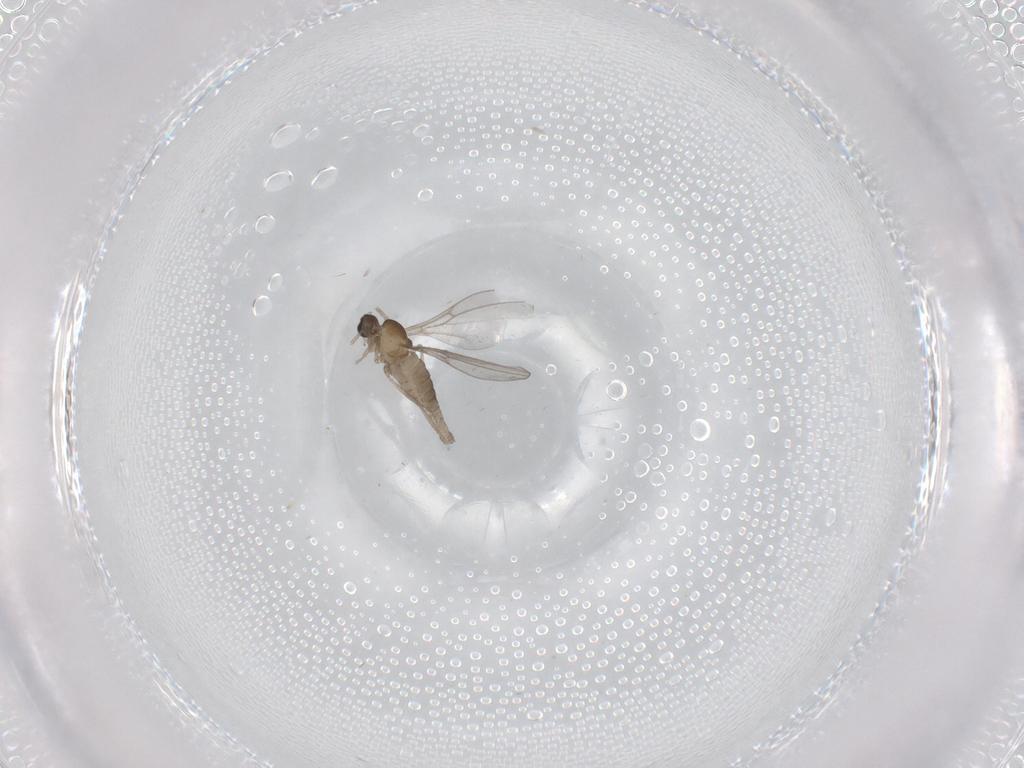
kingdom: Animalia
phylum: Arthropoda
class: Insecta
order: Diptera
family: Cecidomyiidae
